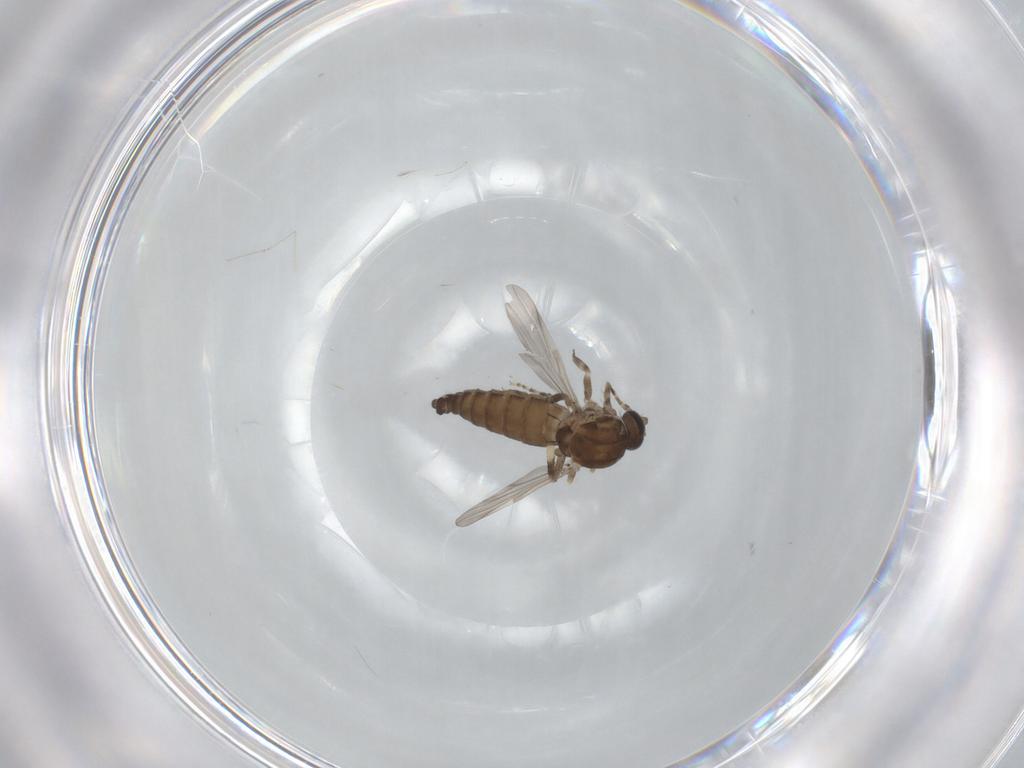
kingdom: Animalia
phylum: Arthropoda
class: Insecta
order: Diptera
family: Ceratopogonidae
